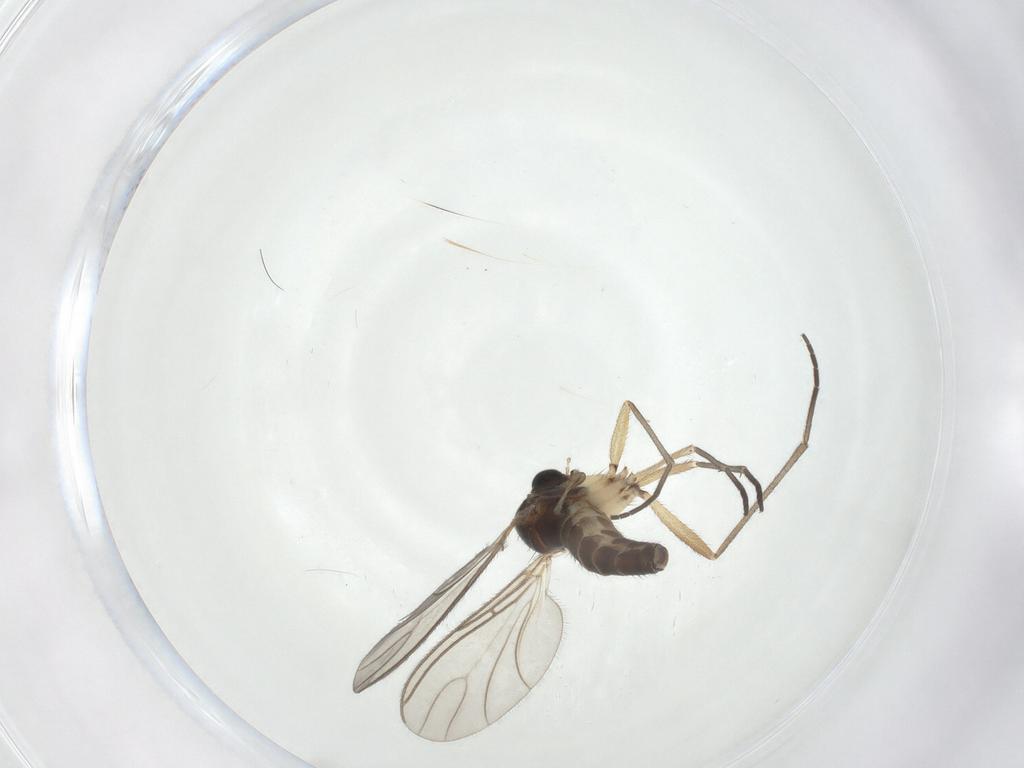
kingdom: Animalia
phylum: Arthropoda
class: Insecta
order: Diptera
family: Sciaridae
